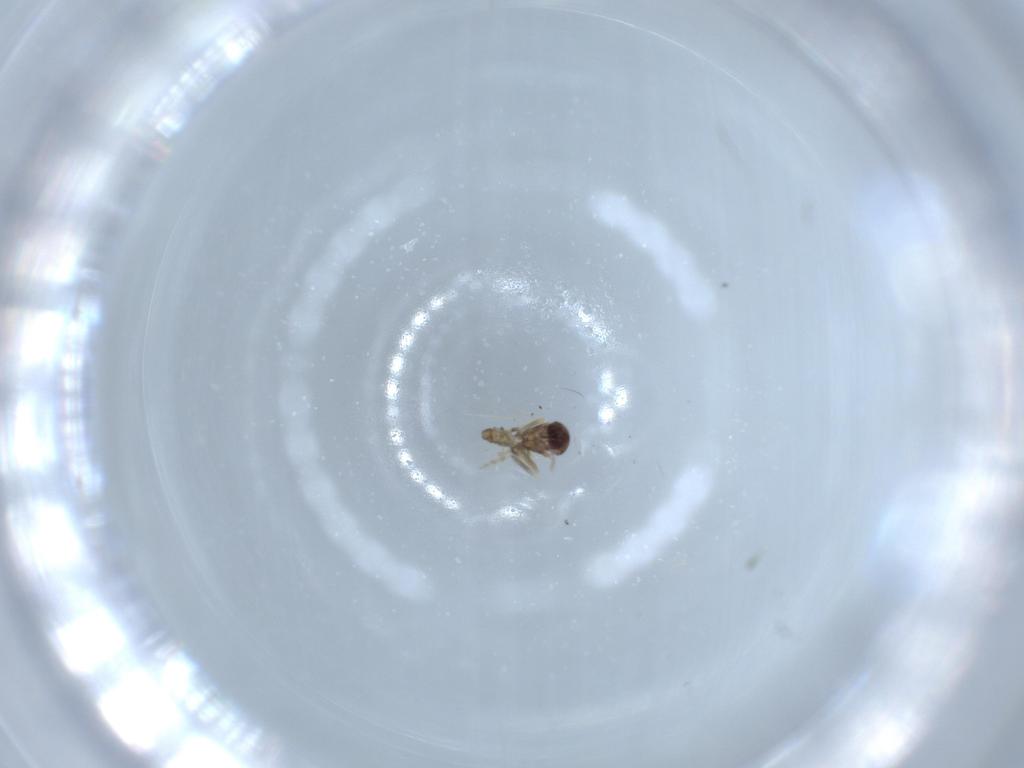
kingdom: Animalia
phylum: Arthropoda
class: Insecta
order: Diptera
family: Ceratopogonidae
